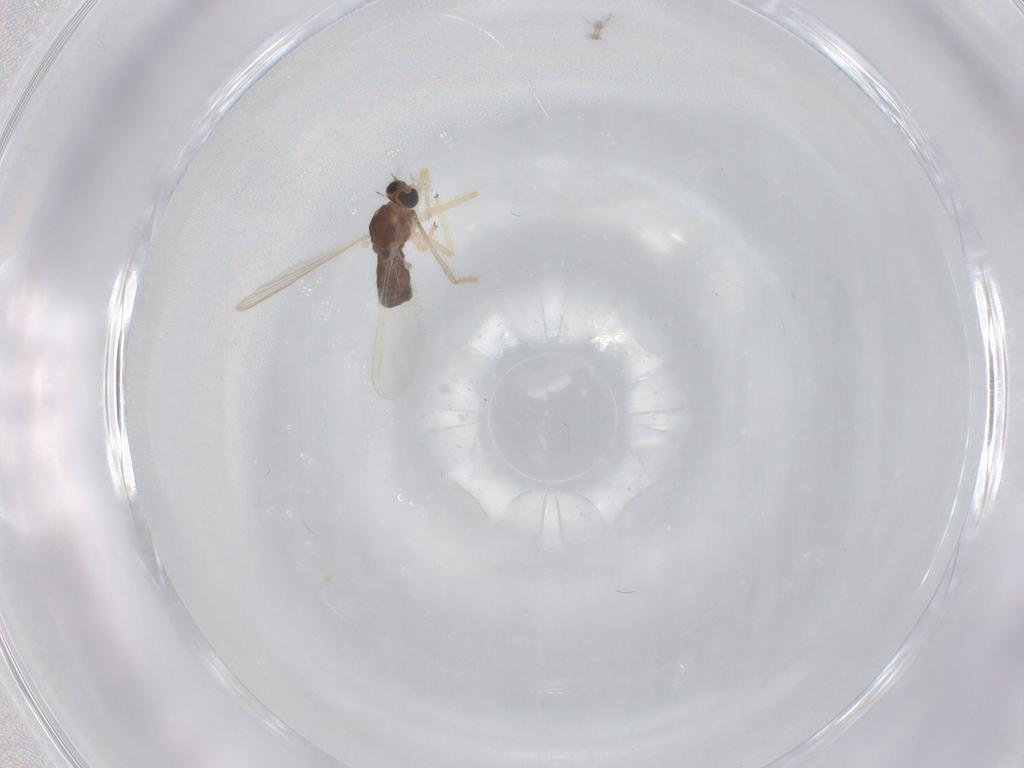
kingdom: Animalia
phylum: Arthropoda
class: Insecta
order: Diptera
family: Chironomidae
